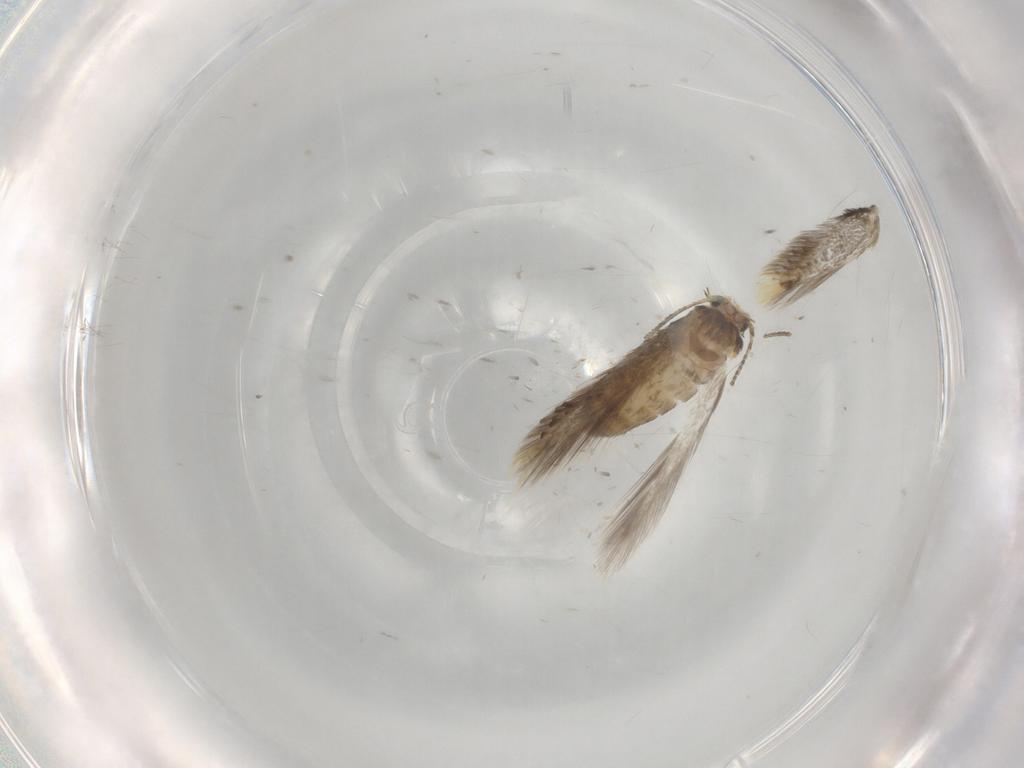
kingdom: Animalia
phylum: Arthropoda
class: Insecta
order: Lepidoptera
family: Nepticulidae
